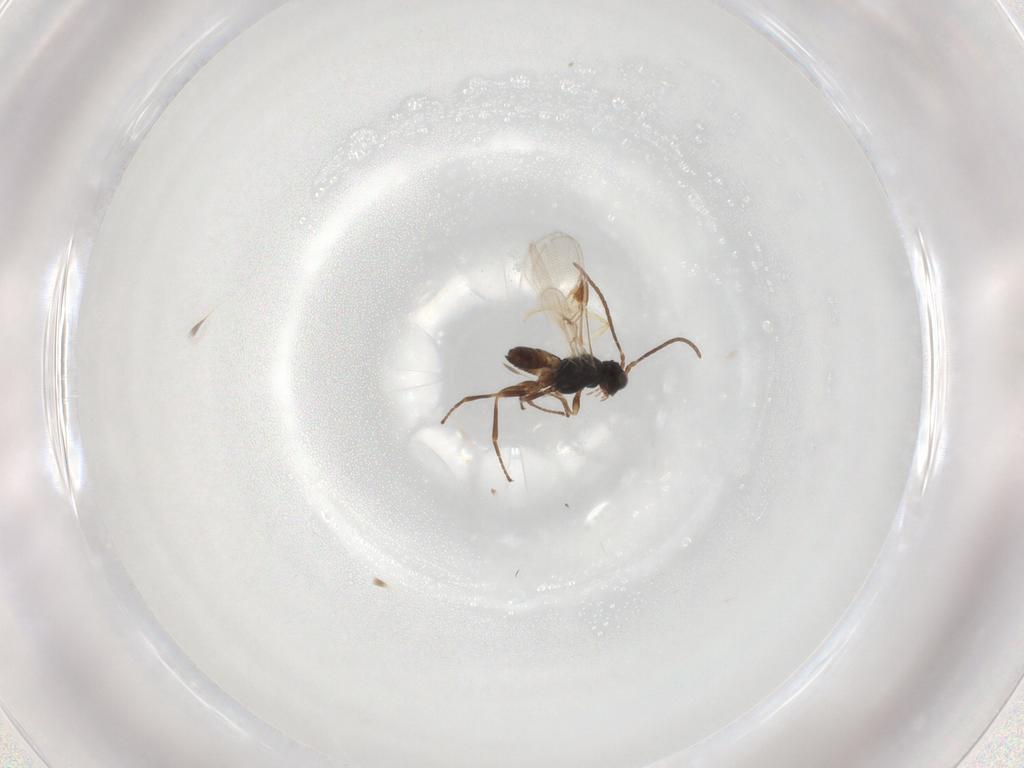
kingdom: Animalia
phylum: Arthropoda
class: Insecta
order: Hymenoptera
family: Braconidae
